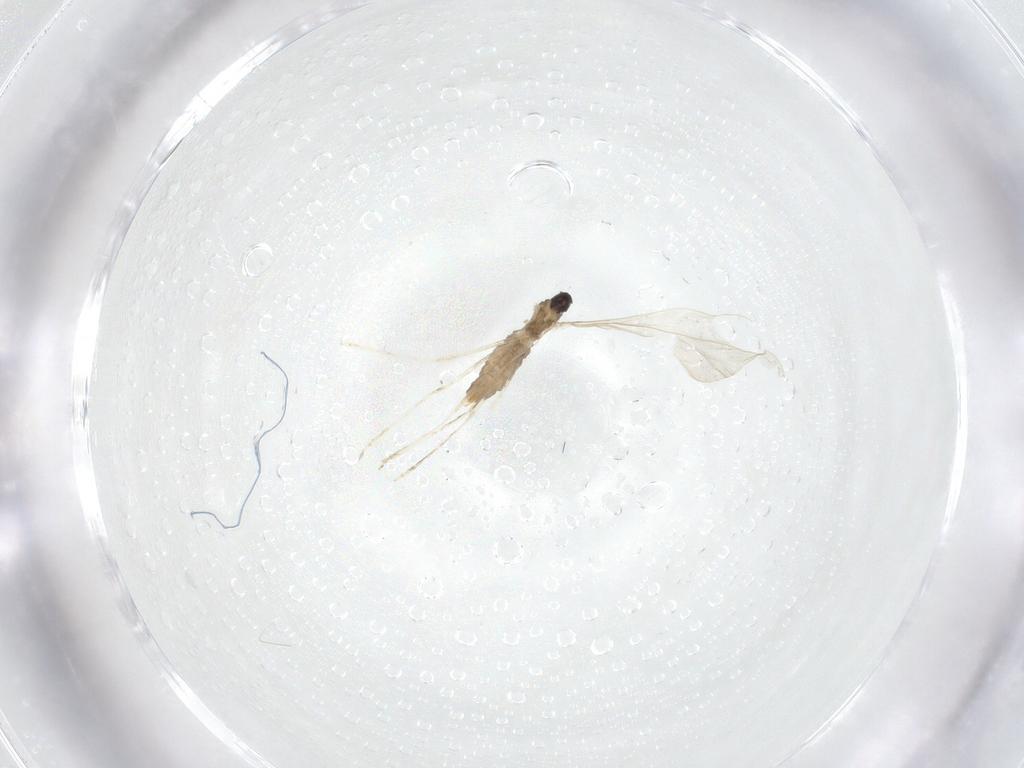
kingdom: Animalia
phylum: Arthropoda
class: Insecta
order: Diptera
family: Cecidomyiidae
